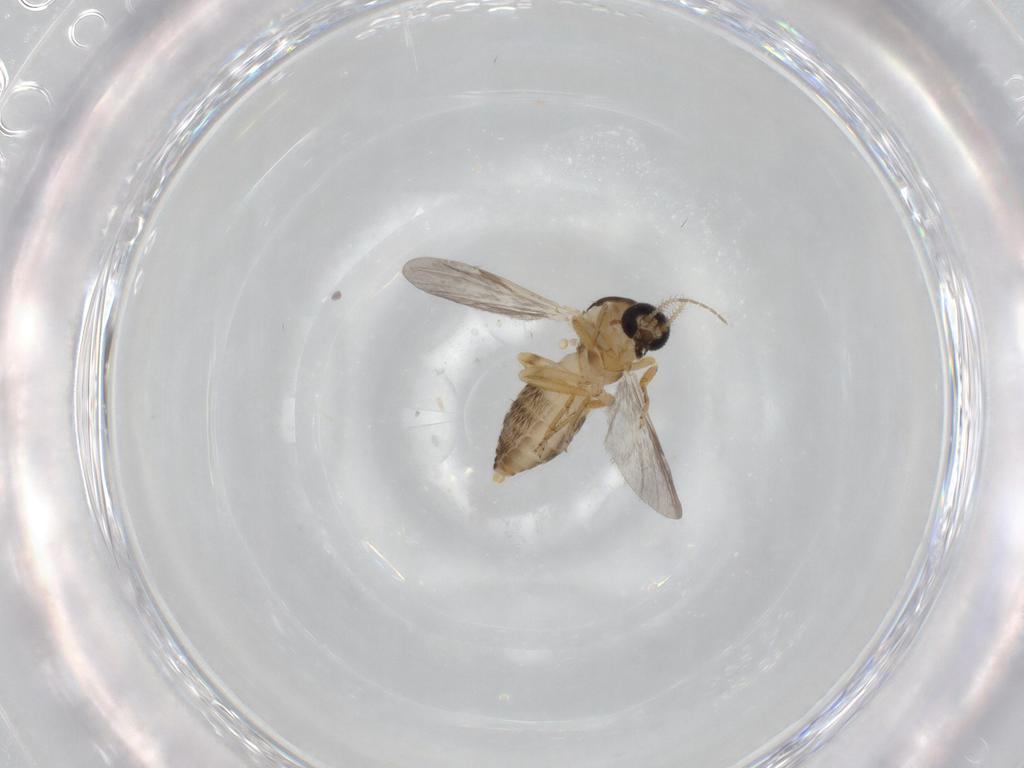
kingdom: Animalia
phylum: Arthropoda
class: Insecta
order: Diptera
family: Ceratopogonidae
